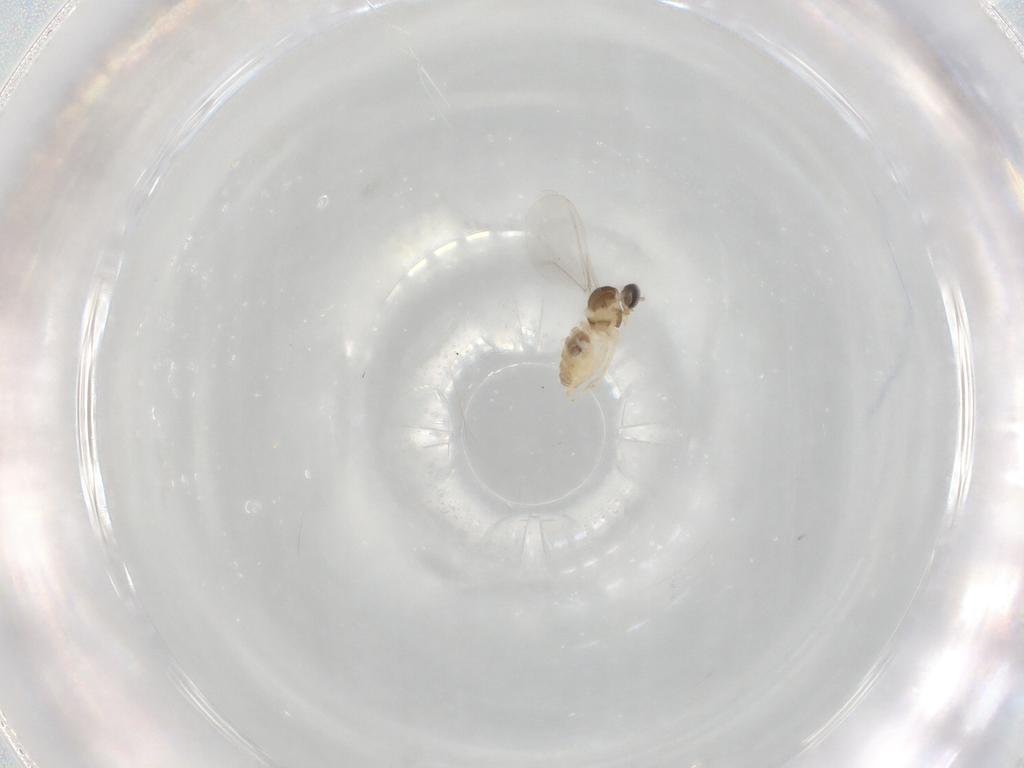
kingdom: Animalia
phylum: Arthropoda
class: Insecta
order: Diptera
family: Cecidomyiidae
